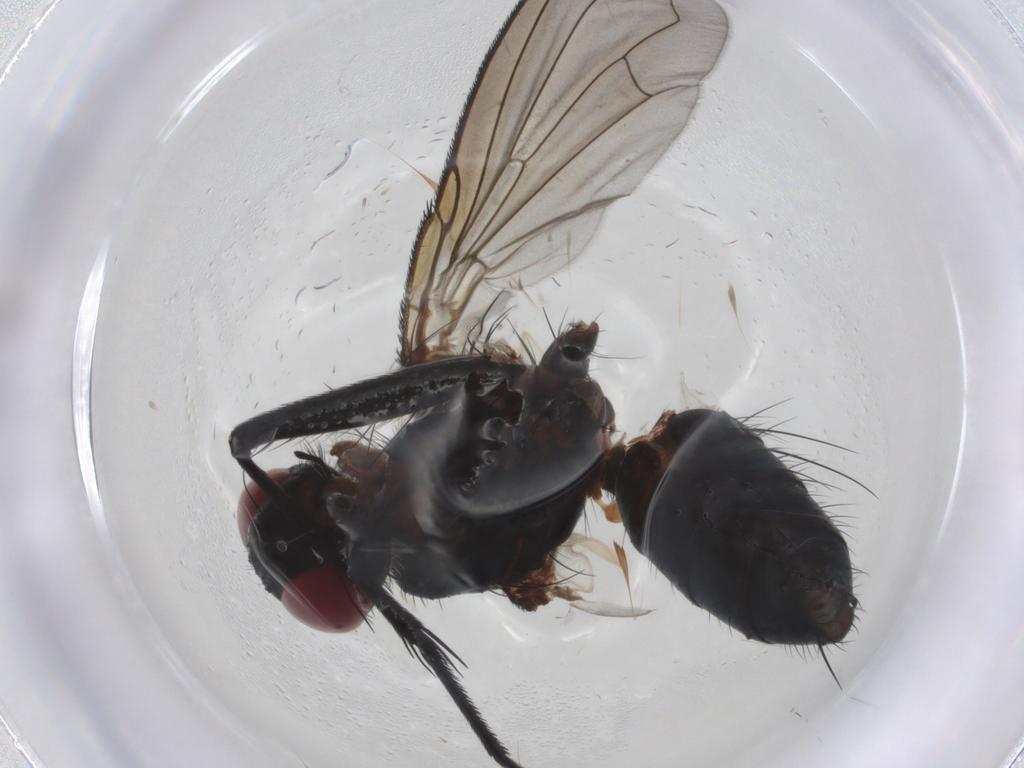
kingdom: Animalia
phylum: Arthropoda
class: Insecta
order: Diptera
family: Tachinidae
